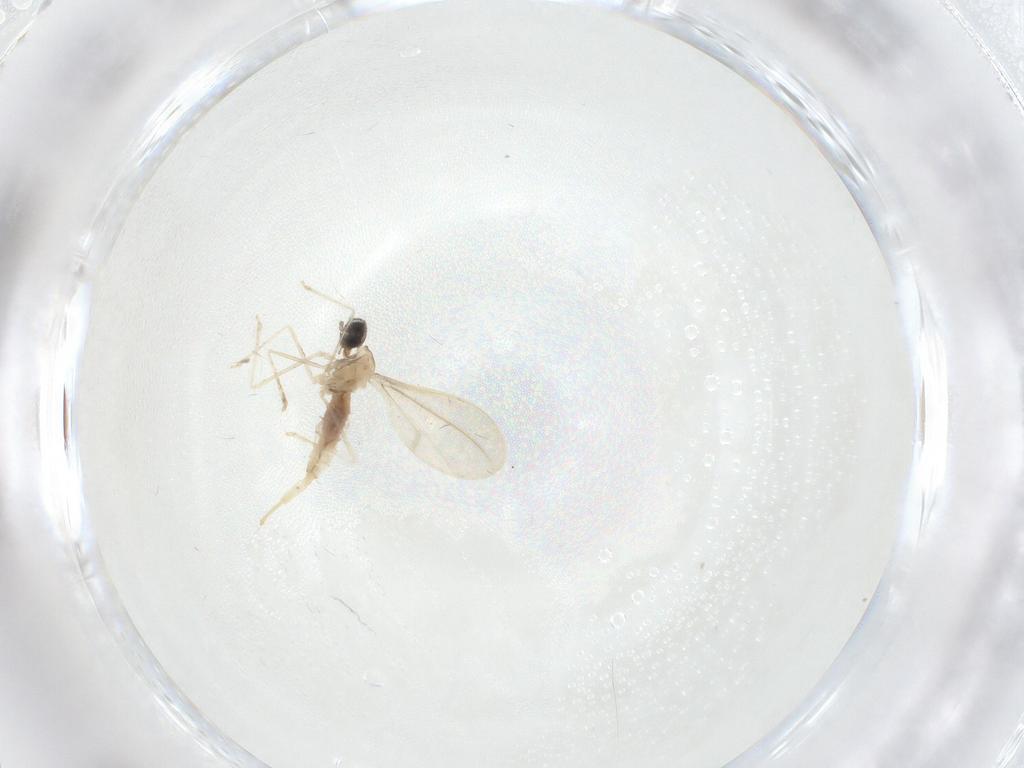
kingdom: Animalia
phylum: Arthropoda
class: Insecta
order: Diptera
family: Cecidomyiidae
